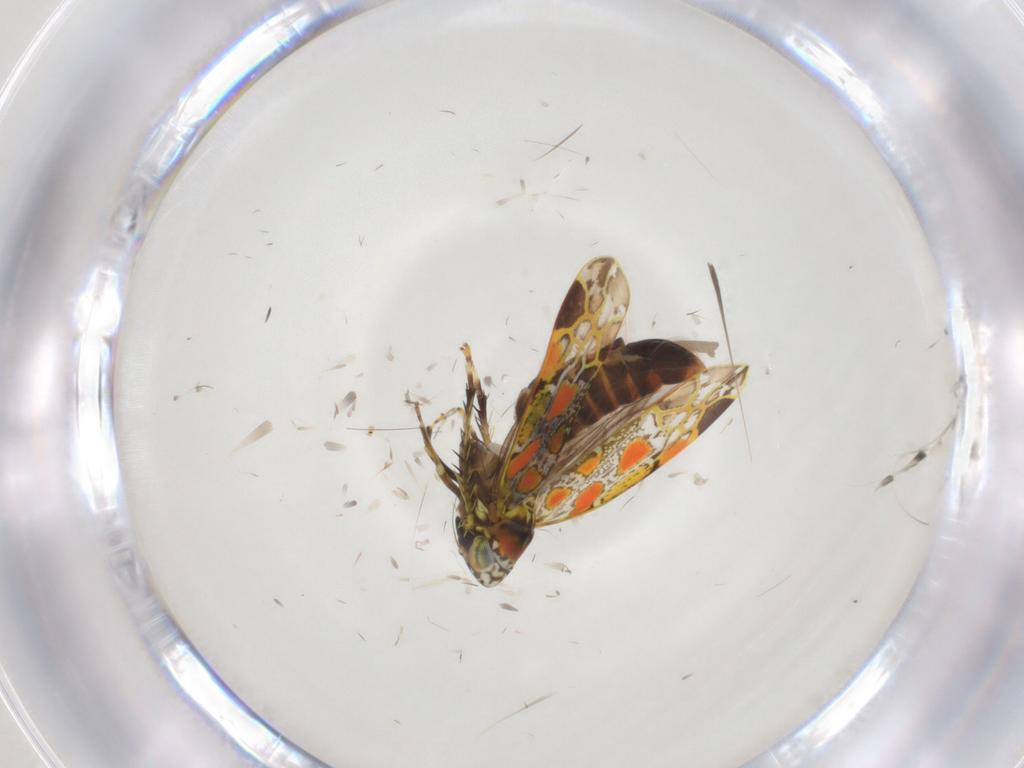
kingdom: Animalia
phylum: Arthropoda
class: Insecta
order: Hemiptera
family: Cicadellidae
